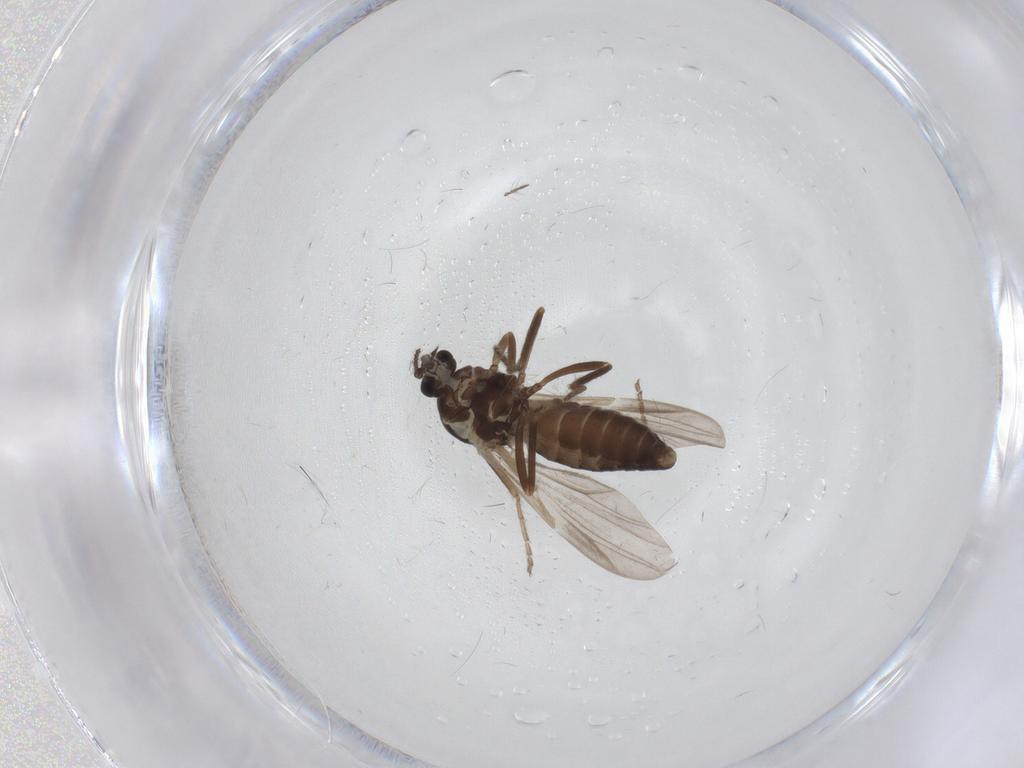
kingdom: Animalia
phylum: Arthropoda
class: Insecta
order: Diptera
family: Ceratopogonidae
